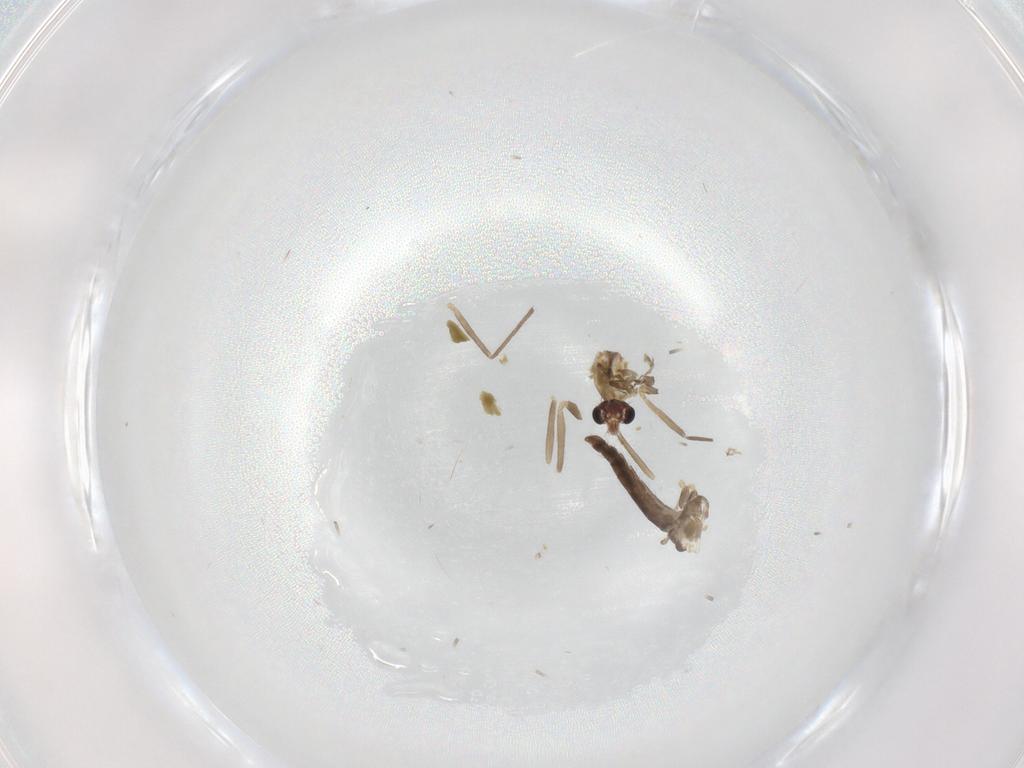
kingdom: Animalia
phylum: Arthropoda
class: Insecta
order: Diptera
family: Chironomidae
